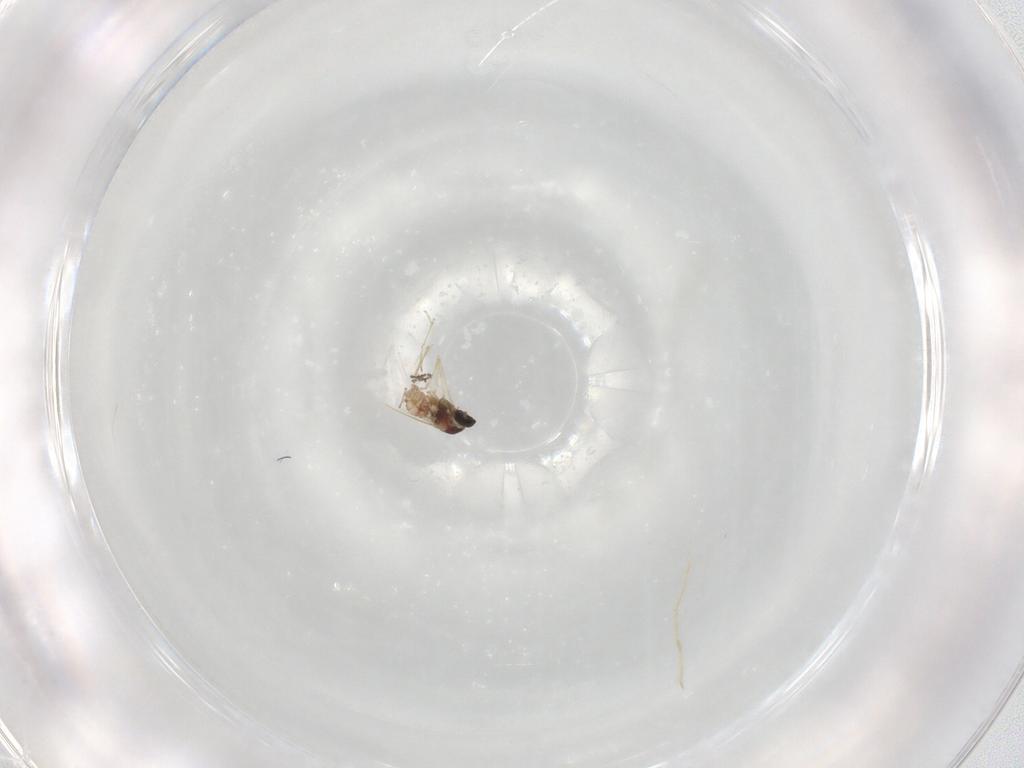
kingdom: Animalia
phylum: Arthropoda
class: Insecta
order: Diptera
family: Cecidomyiidae
